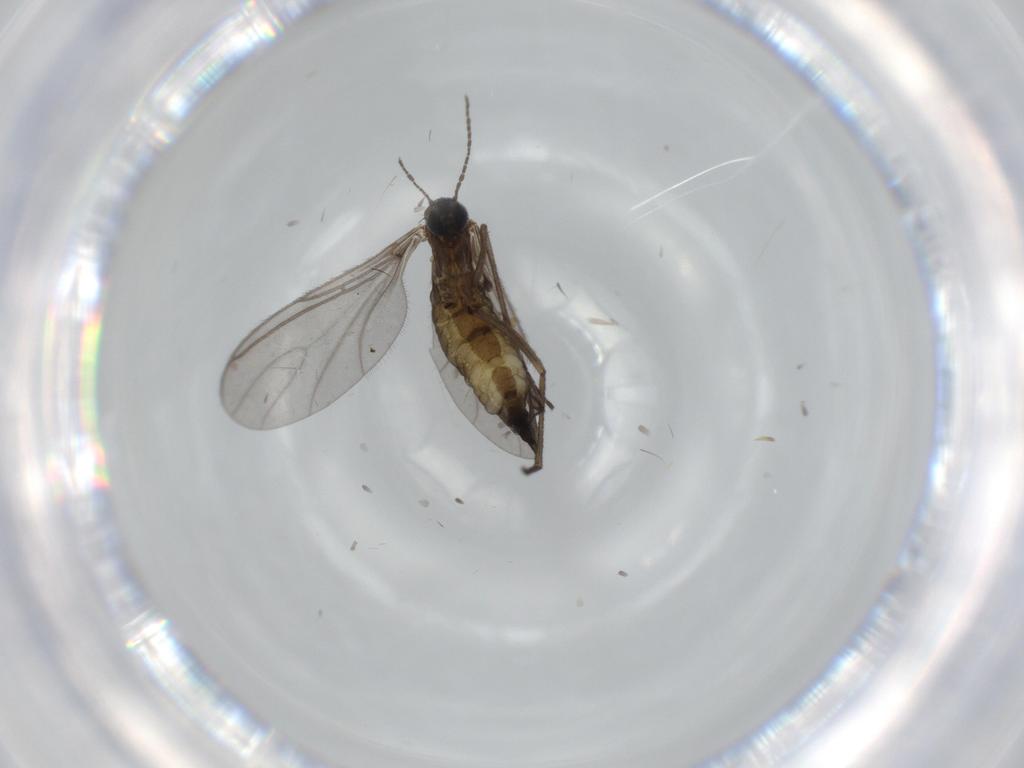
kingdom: Animalia
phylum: Arthropoda
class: Insecta
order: Diptera
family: Sciaridae
